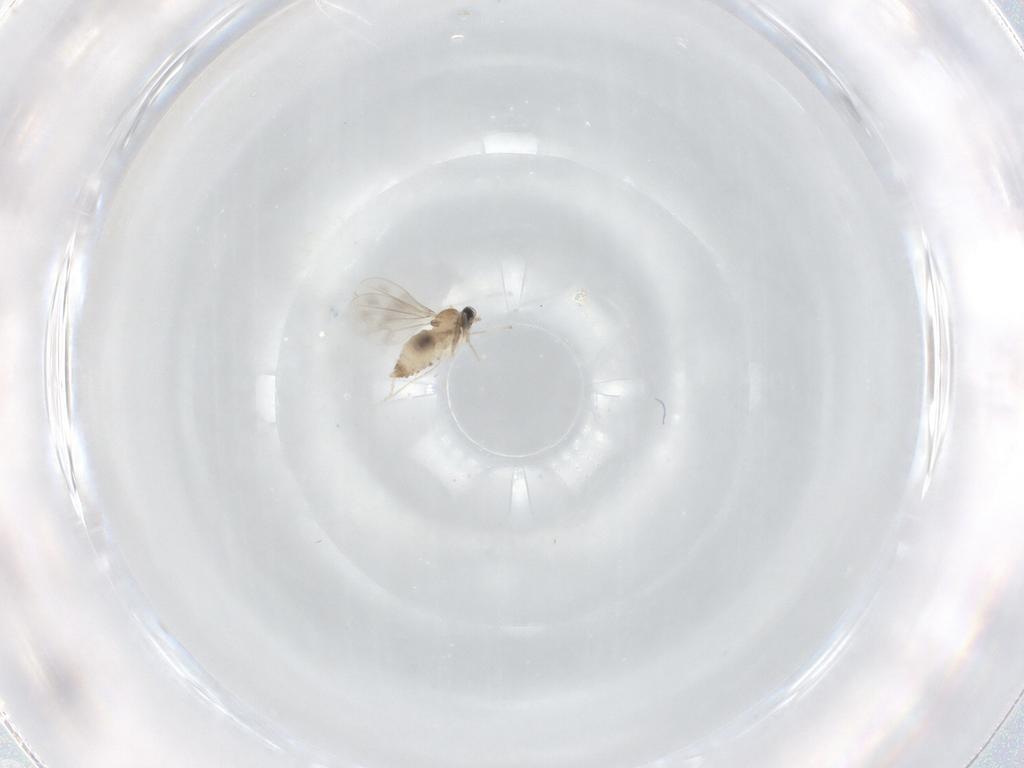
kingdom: Animalia
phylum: Arthropoda
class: Insecta
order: Diptera
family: Cecidomyiidae
